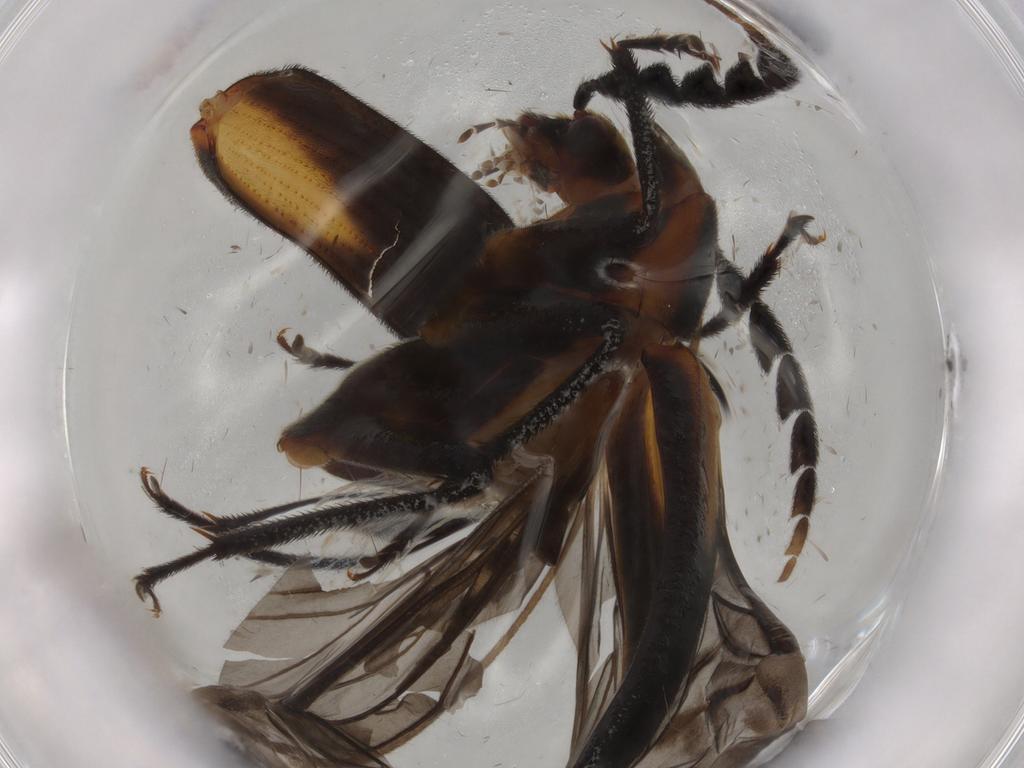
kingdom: Animalia
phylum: Arthropoda
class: Insecta
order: Coleoptera
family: Ptilodactylidae
